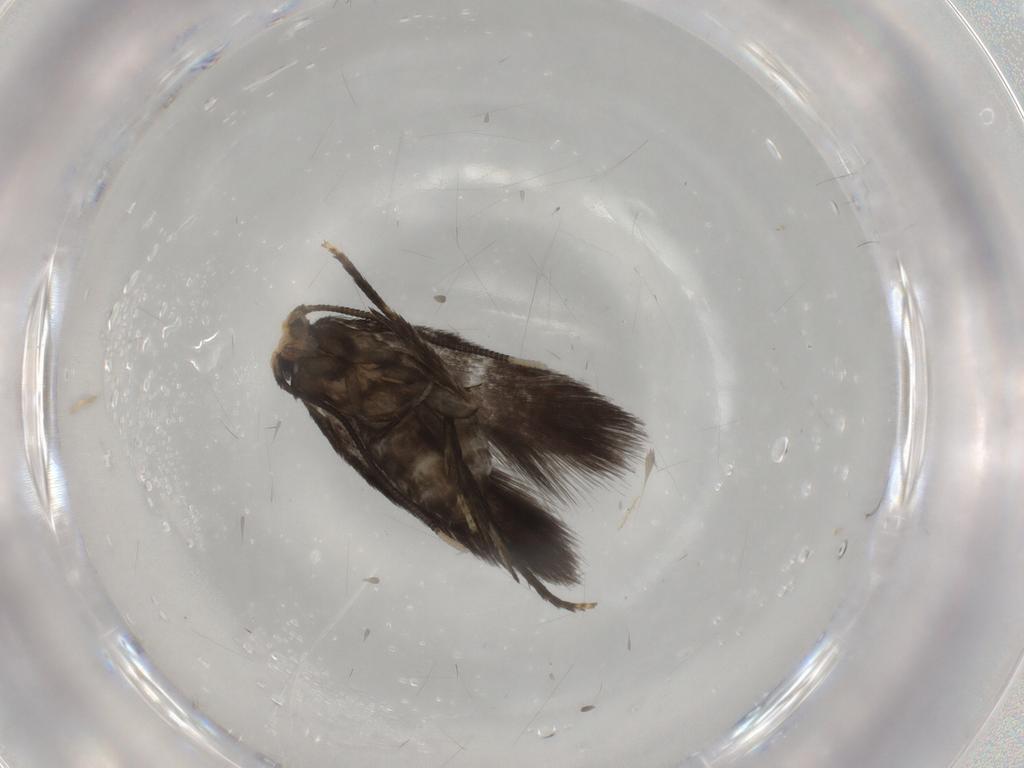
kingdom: Animalia
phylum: Arthropoda
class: Insecta
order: Lepidoptera
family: Nepticulidae
